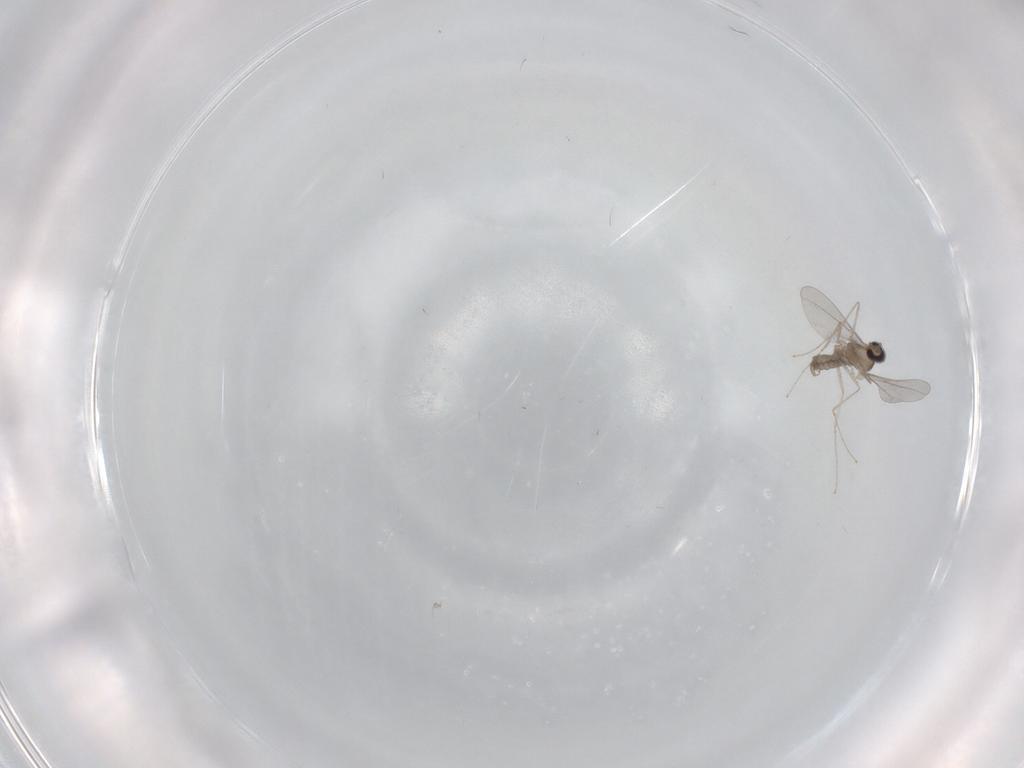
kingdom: Animalia
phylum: Arthropoda
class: Insecta
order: Diptera
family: Cecidomyiidae
